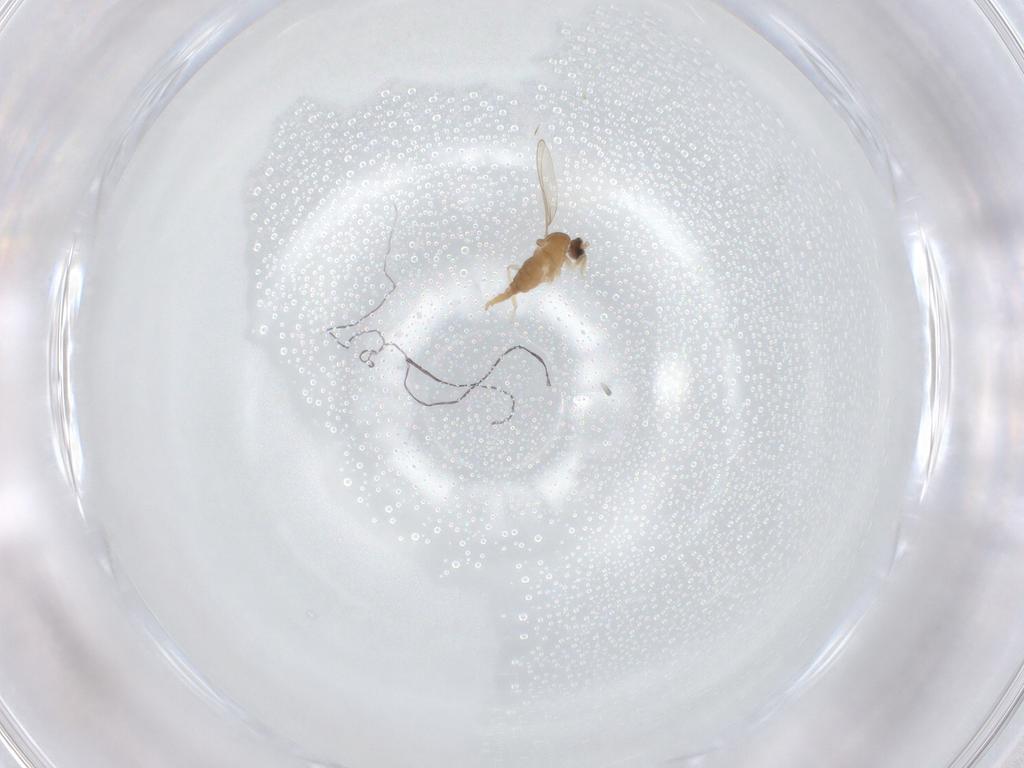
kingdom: Animalia
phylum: Arthropoda
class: Insecta
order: Diptera
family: Cecidomyiidae
